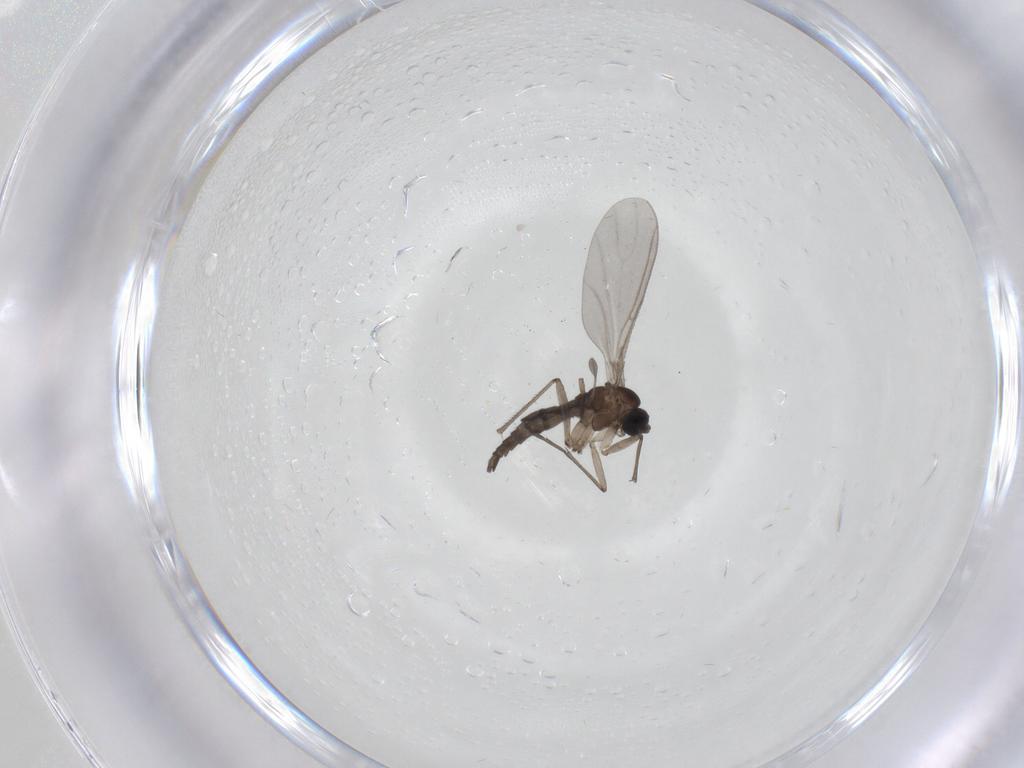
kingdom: Animalia
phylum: Arthropoda
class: Insecta
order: Diptera
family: Sciaridae
